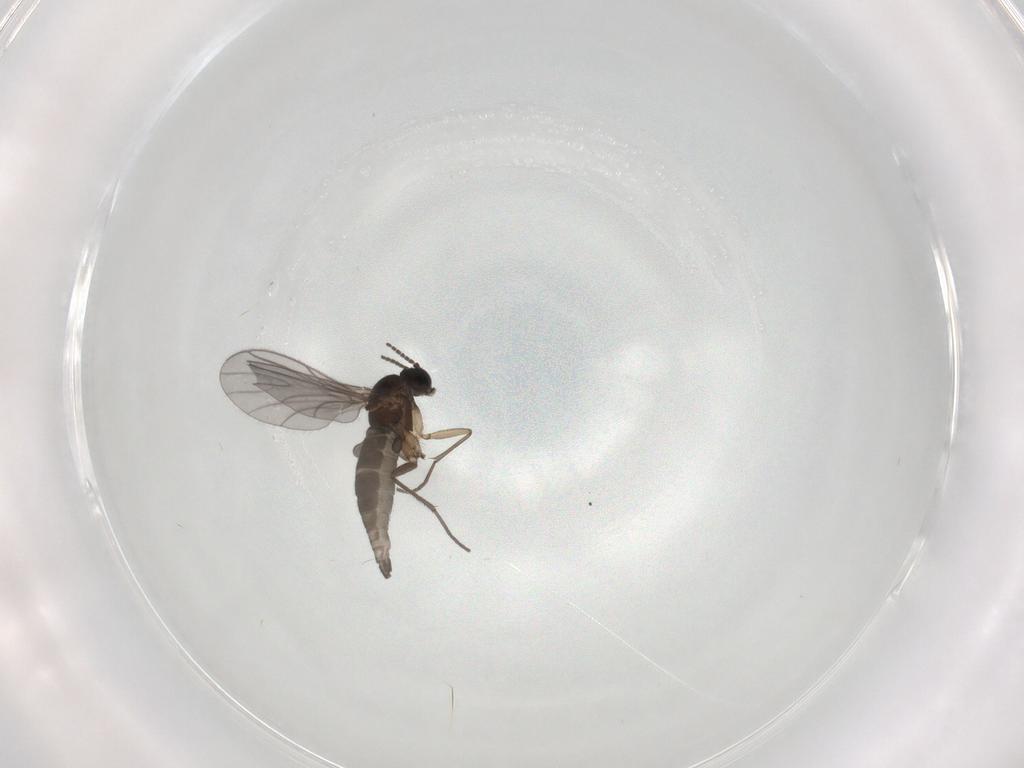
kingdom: Animalia
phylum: Arthropoda
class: Insecta
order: Diptera
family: Sciaridae
